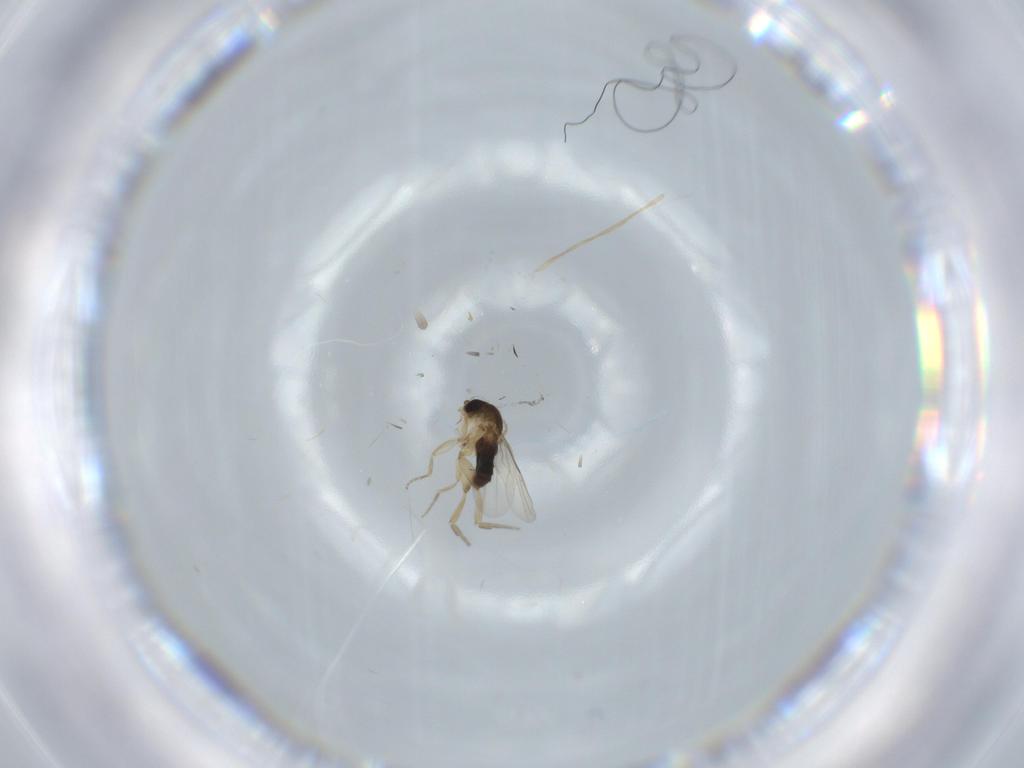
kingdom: Animalia
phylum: Arthropoda
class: Insecta
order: Diptera
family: Phoridae
